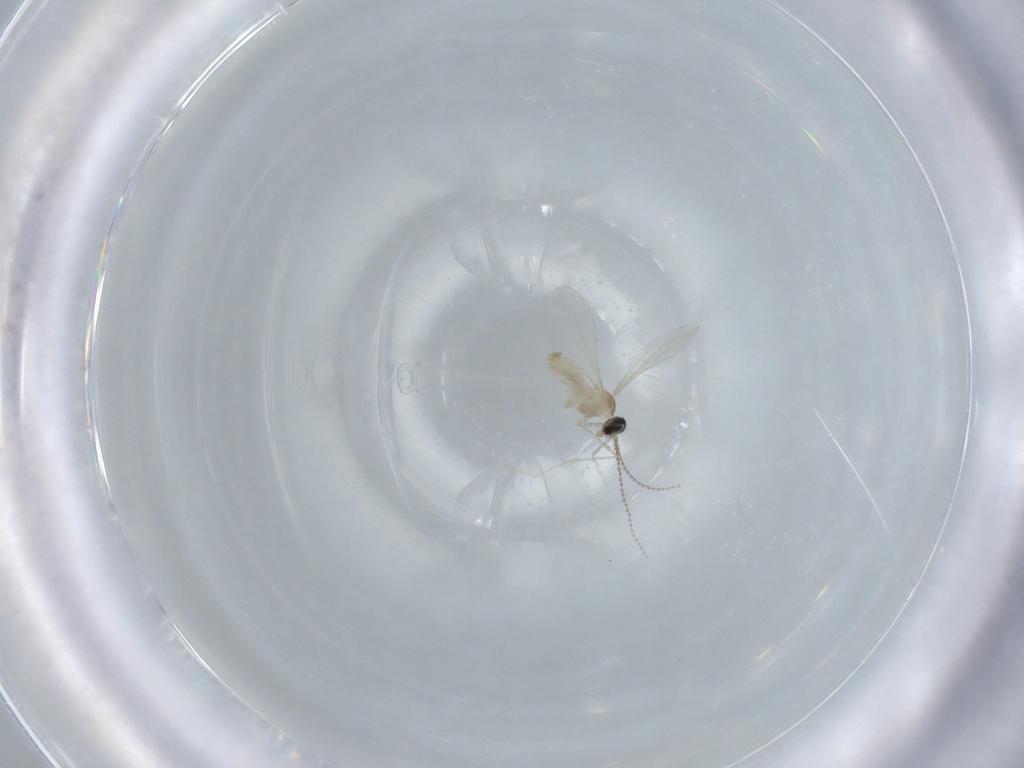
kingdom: Animalia
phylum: Arthropoda
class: Insecta
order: Diptera
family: Cecidomyiidae
